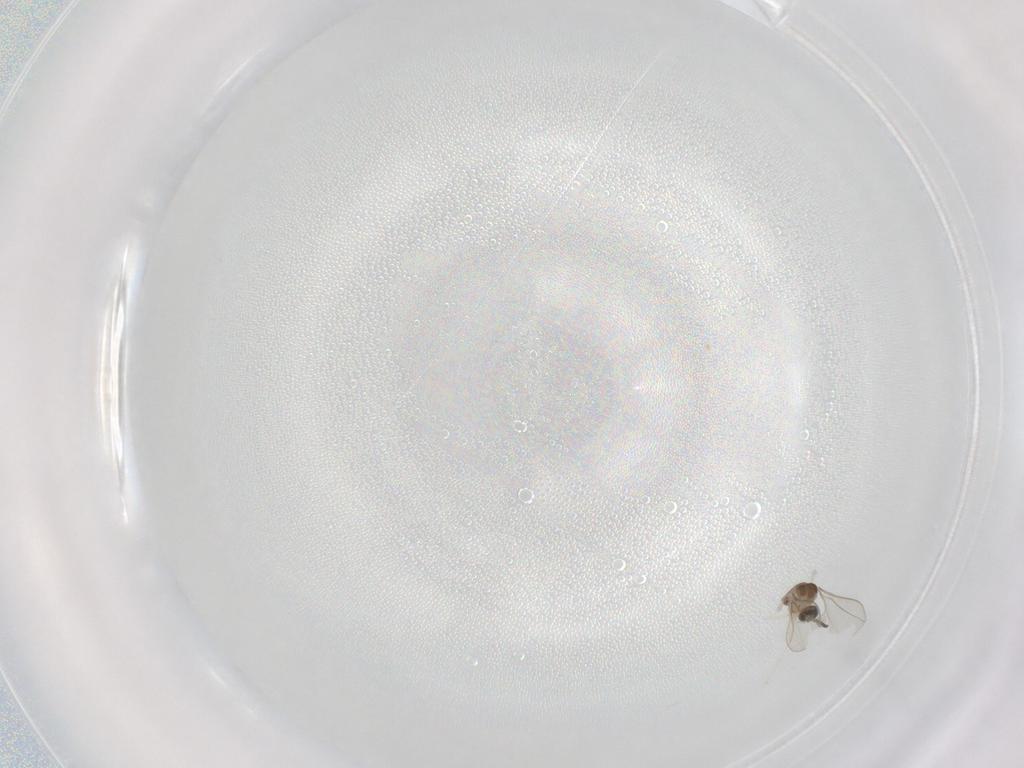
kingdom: Animalia
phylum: Arthropoda
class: Insecta
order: Diptera
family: Cecidomyiidae
